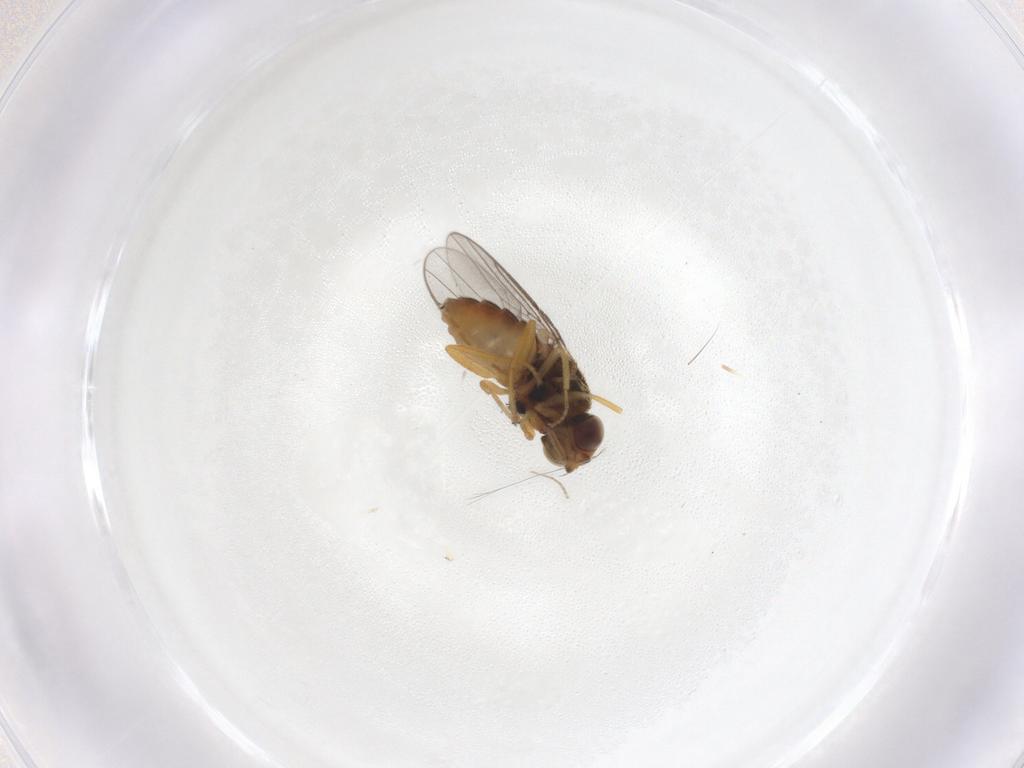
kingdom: Animalia
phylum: Arthropoda
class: Insecta
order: Diptera
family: Chloropidae
